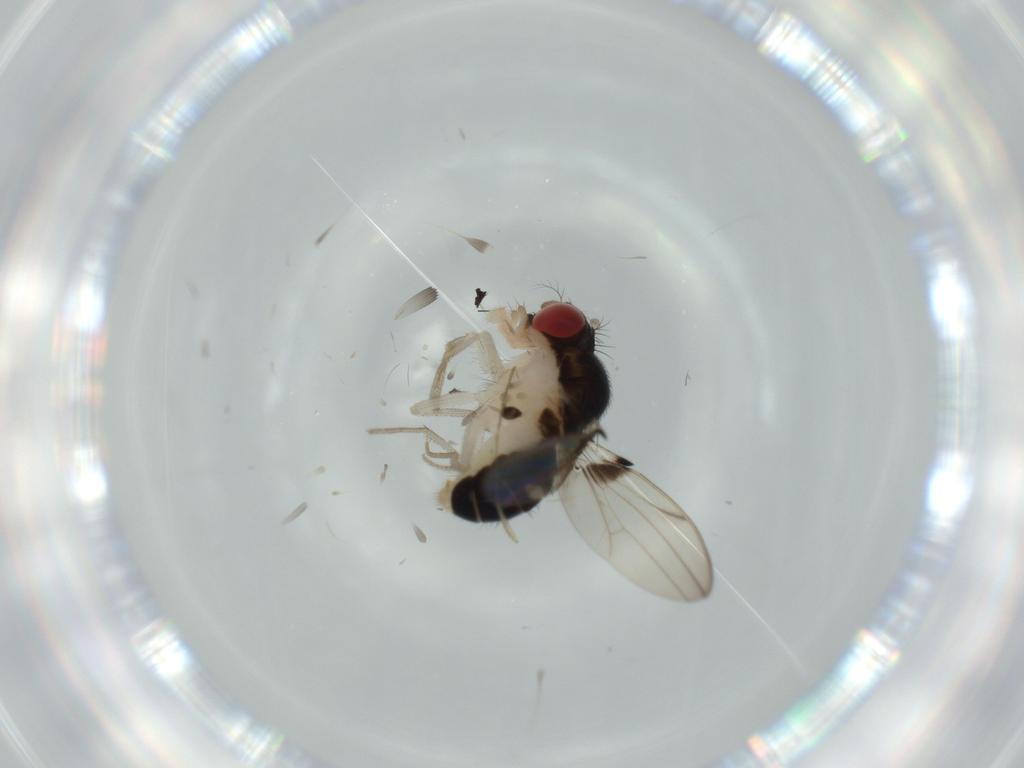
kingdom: Animalia
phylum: Arthropoda
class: Insecta
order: Diptera
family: Drosophilidae
